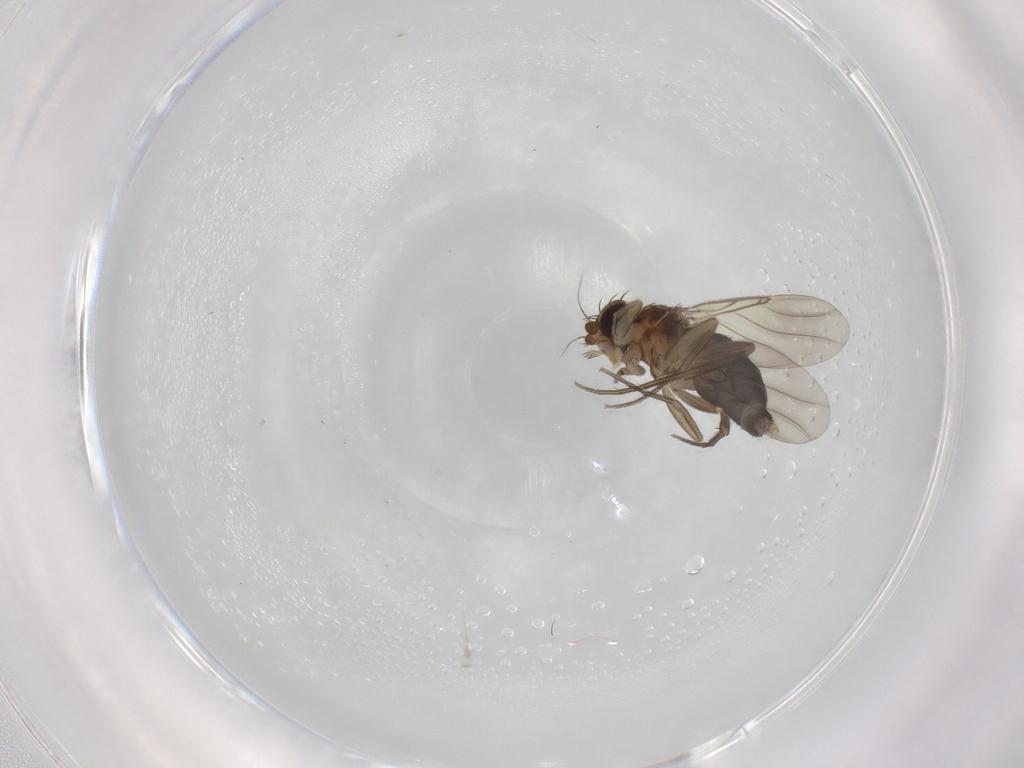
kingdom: Animalia
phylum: Arthropoda
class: Insecta
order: Diptera
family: Phoridae
